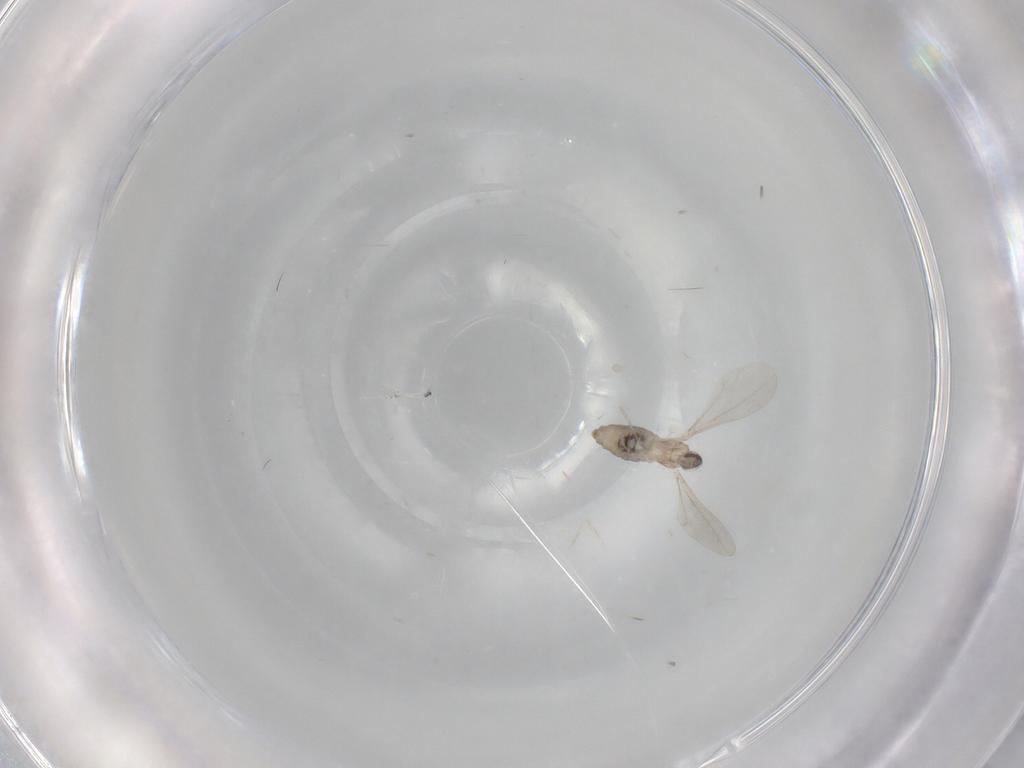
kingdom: Animalia
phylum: Arthropoda
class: Insecta
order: Diptera
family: Cecidomyiidae
